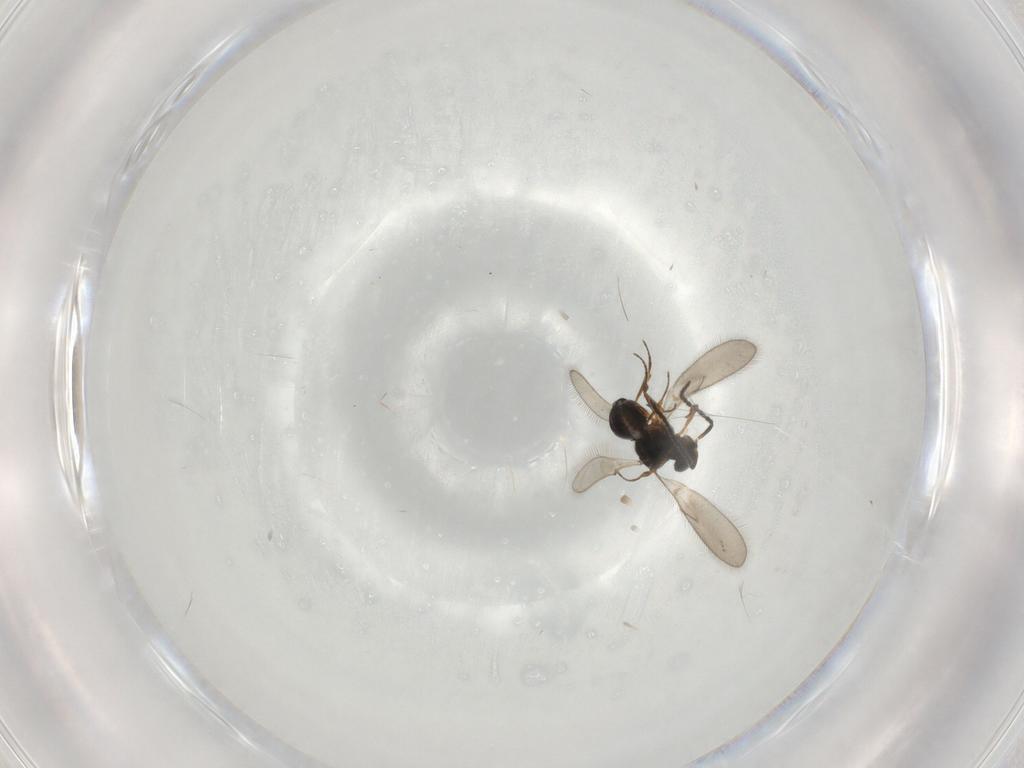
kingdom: Animalia
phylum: Arthropoda
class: Insecta
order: Hymenoptera
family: Scelionidae
